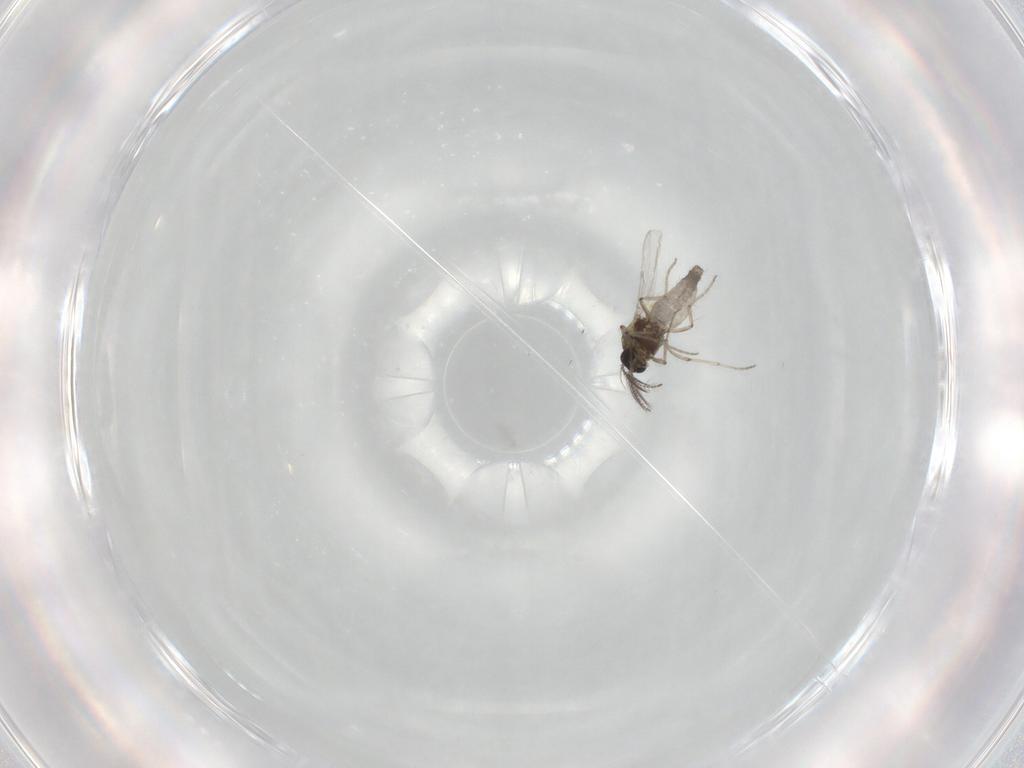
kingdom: Animalia
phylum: Arthropoda
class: Insecta
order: Diptera
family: Ceratopogonidae
